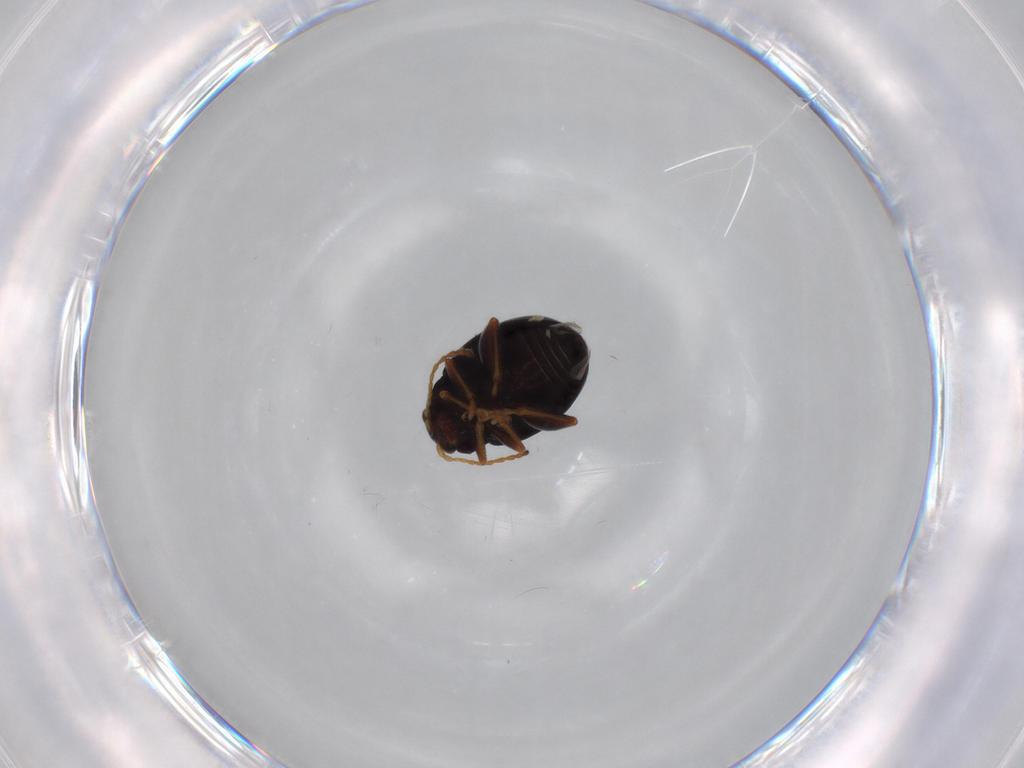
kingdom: Animalia
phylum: Arthropoda
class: Insecta
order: Coleoptera
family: Chrysomelidae
